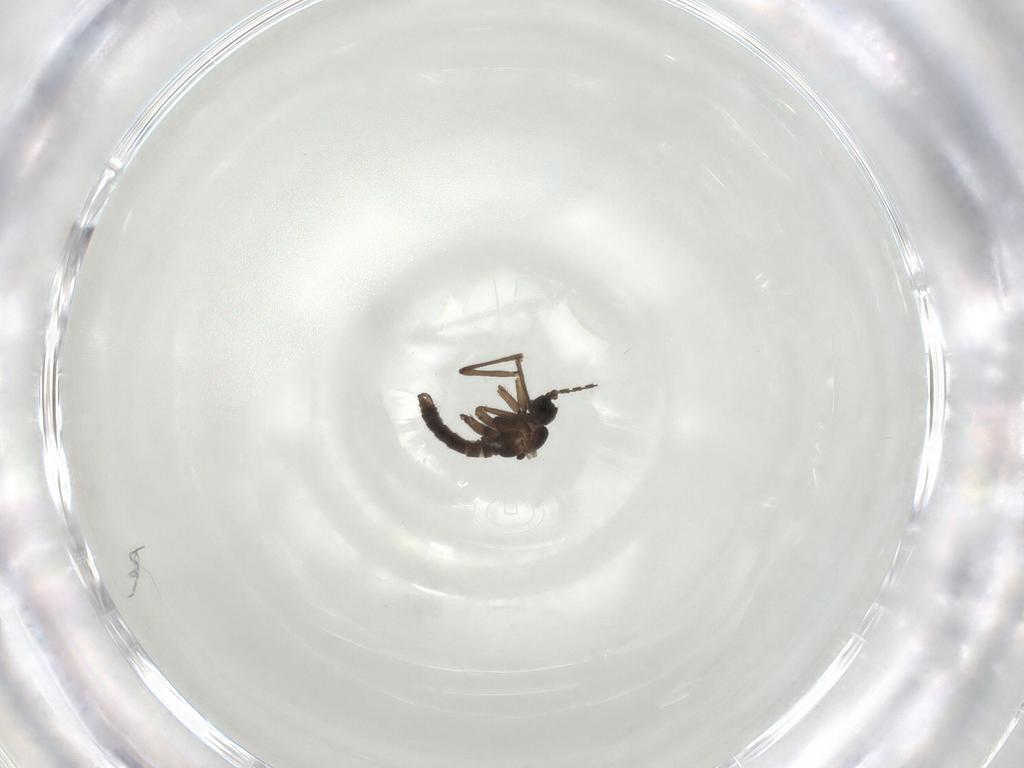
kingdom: Animalia
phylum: Arthropoda
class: Insecta
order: Diptera
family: Sciaridae
